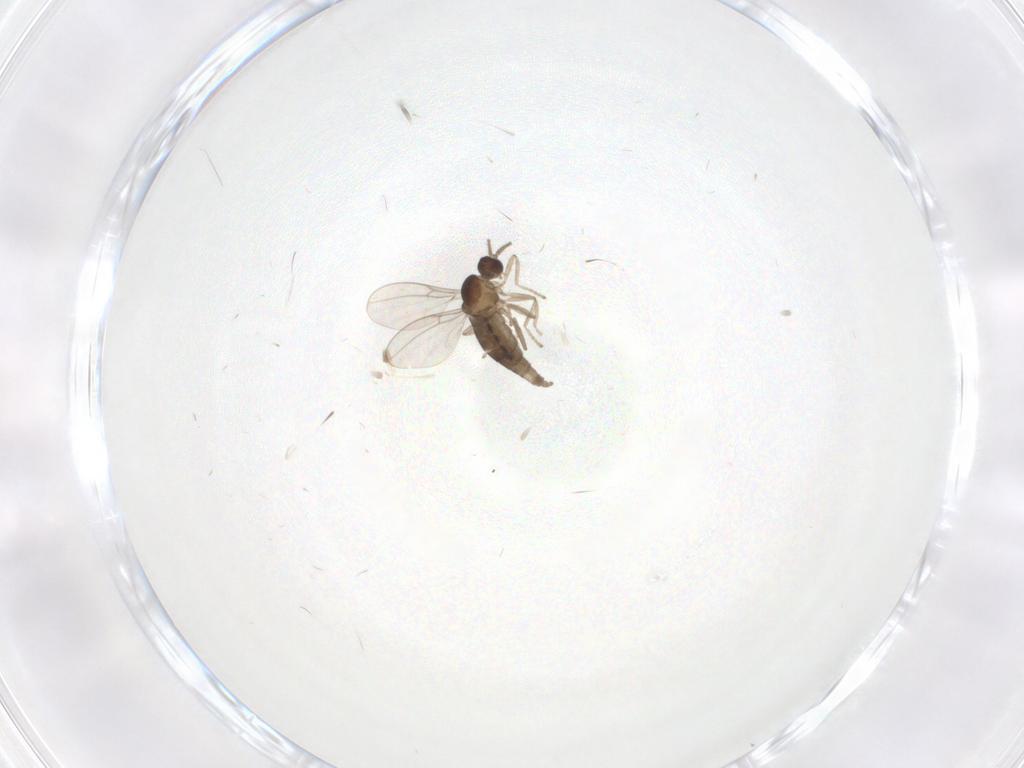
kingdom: Animalia
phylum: Arthropoda
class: Insecta
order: Diptera
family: Cecidomyiidae
